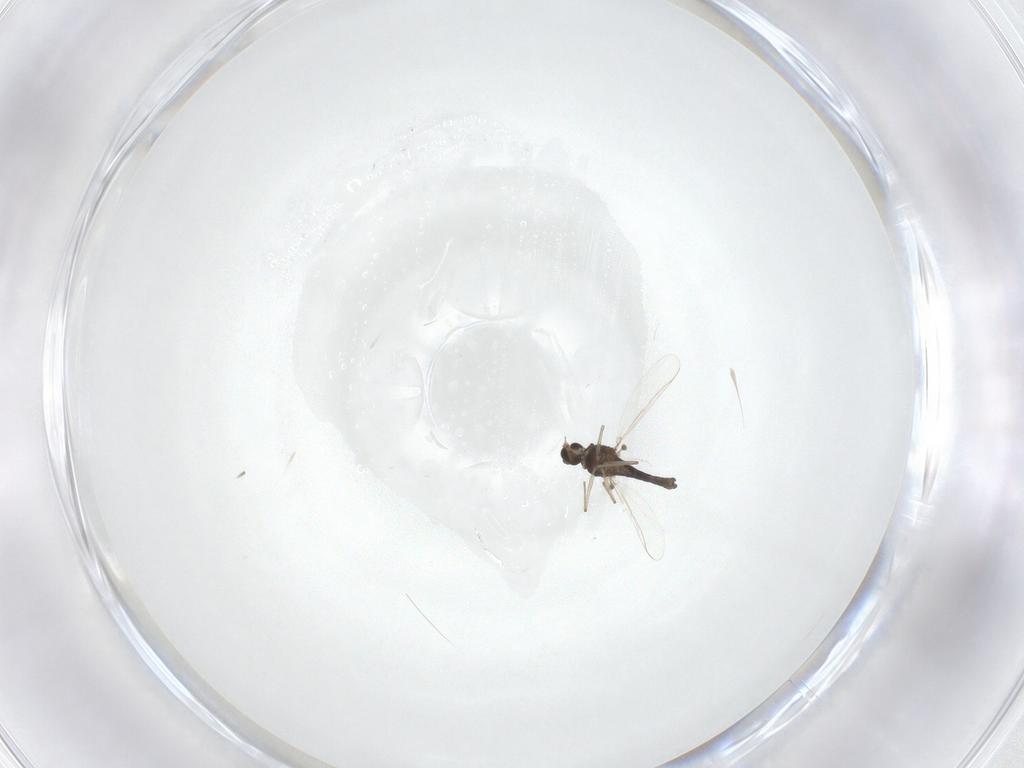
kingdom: Animalia
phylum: Arthropoda
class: Insecta
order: Diptera
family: Chironomidae
